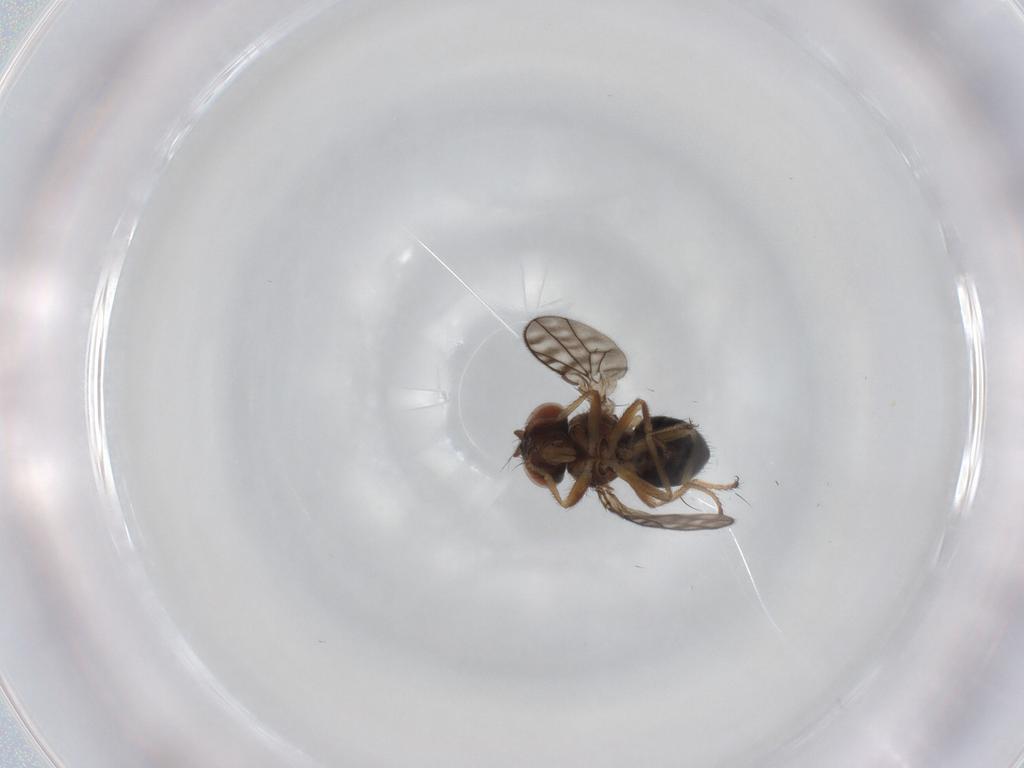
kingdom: Animalia
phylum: Arthropoda
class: Insecta
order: Diptera
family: Ephydridae
